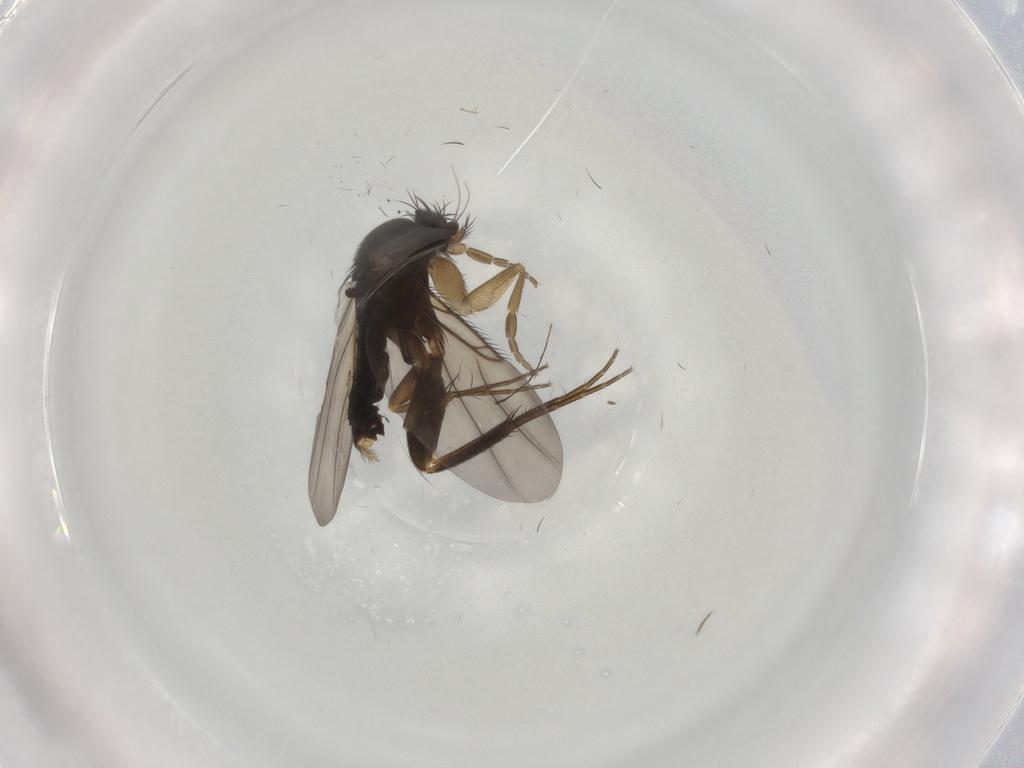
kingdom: Animalia
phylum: Arthropoda
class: Insecta
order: Diptera
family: Phoridae
